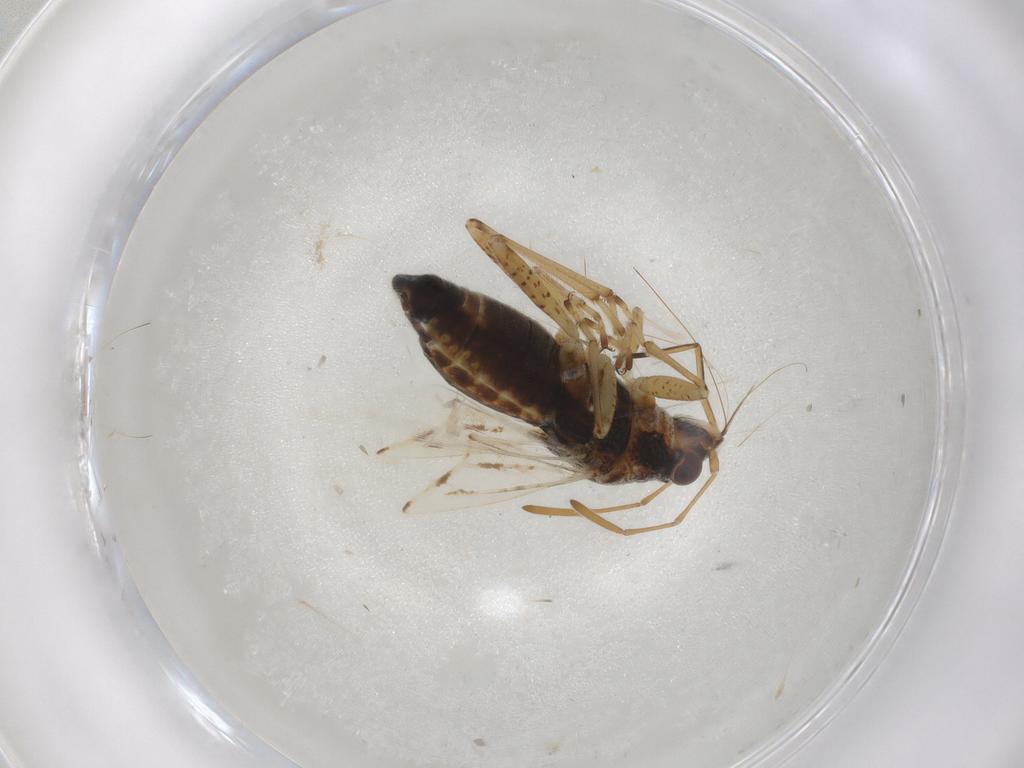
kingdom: Animalia
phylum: Arthropoda
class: Insecta
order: Hemiptera
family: Lygaeidae
